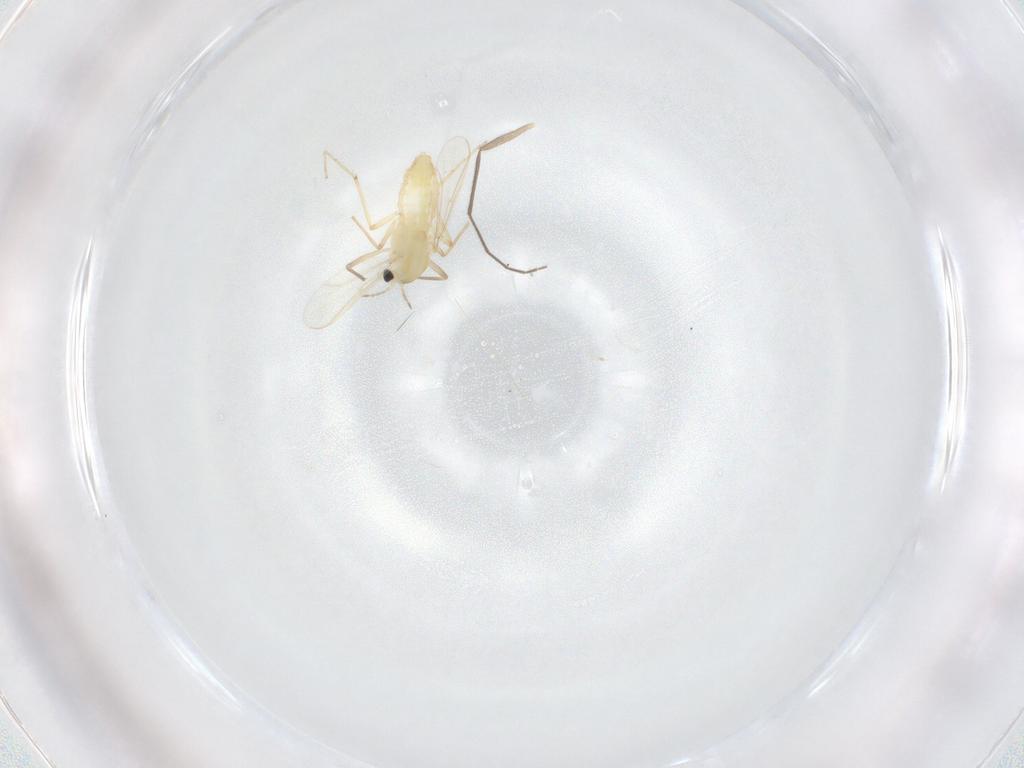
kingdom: Animalia
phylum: Arthropoda
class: Insecta
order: Diptera
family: Chironomidae
